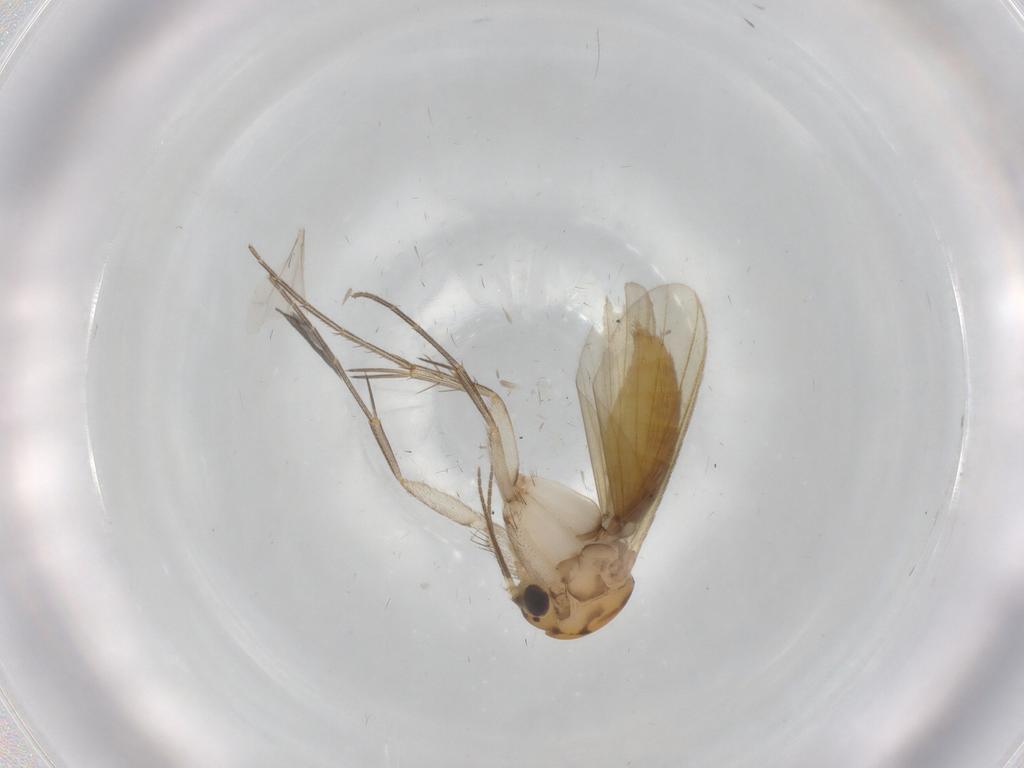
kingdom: Animalia
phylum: Arthropoda
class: Insecta
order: Diptera
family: Mycetophilidae
